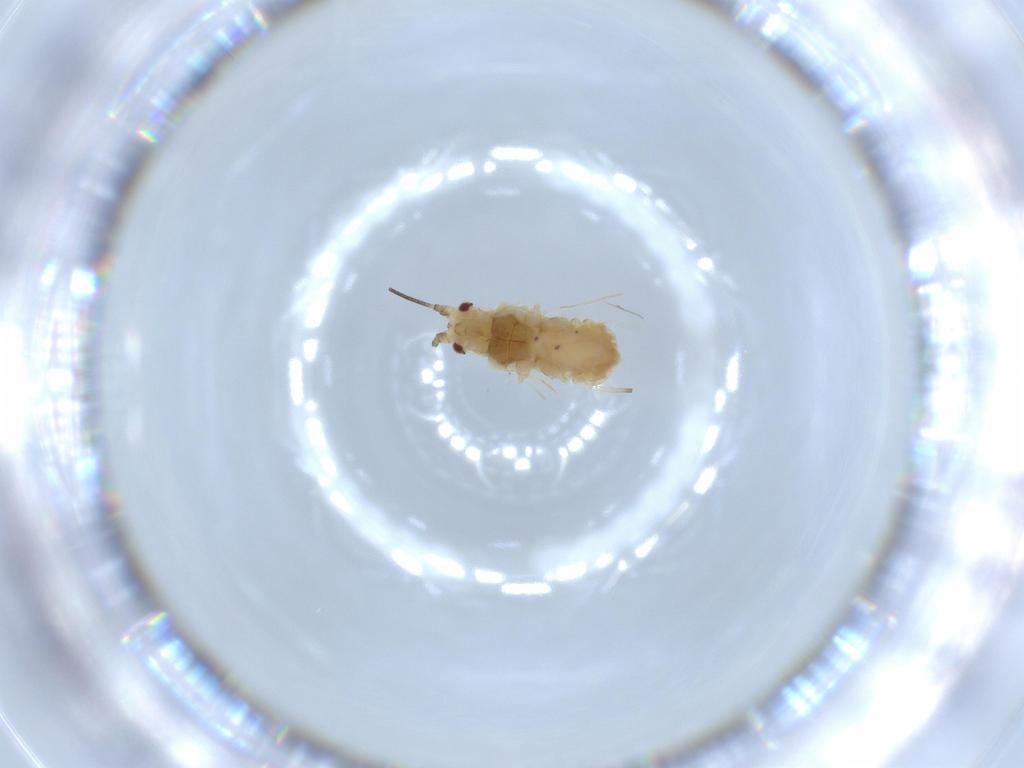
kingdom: Animalia
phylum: Arthropoda
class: Insecta
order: Hemiptera
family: Aphididae
